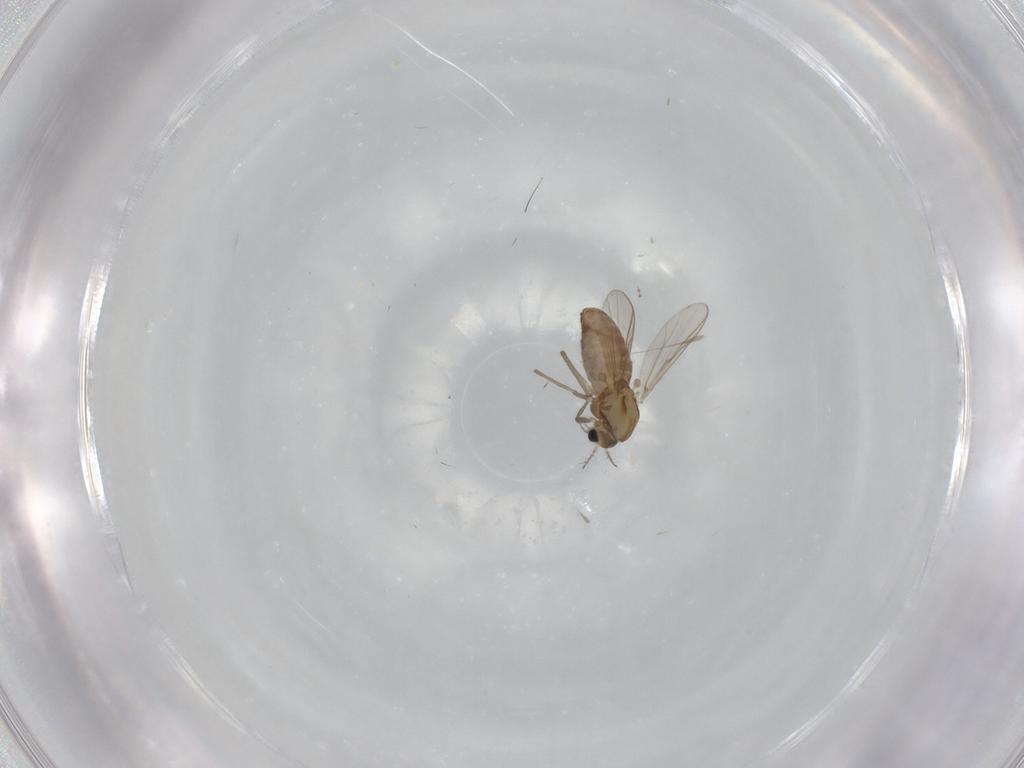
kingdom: Animalia
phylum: Arthropoda
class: Insecta
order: Diptera
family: Chironomidae
